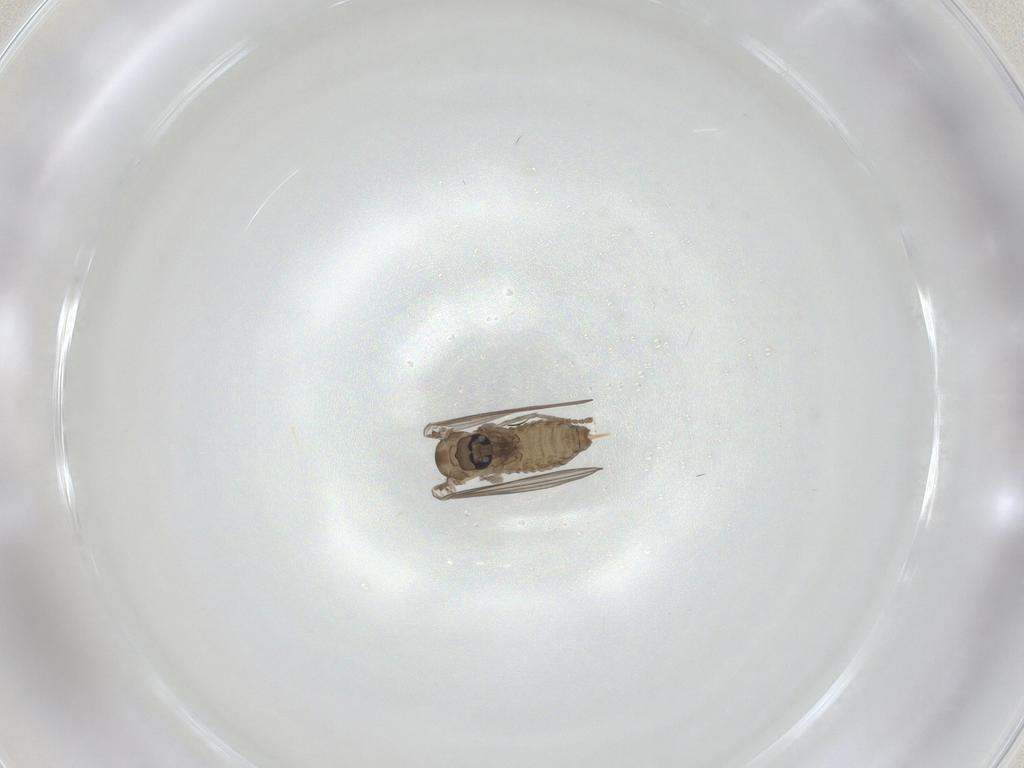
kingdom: Animalia
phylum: Arthropoda
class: Insecta
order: Diptera
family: Psychodidae
